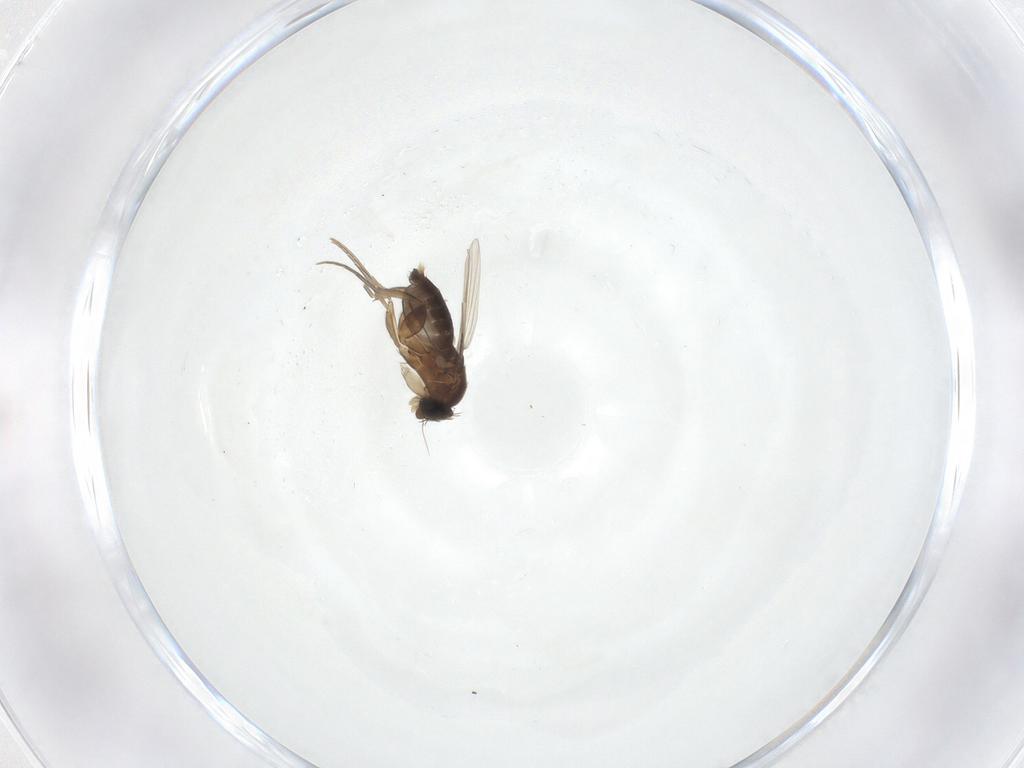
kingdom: Animalia
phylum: Arthropoda
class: Insecta
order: Diptera
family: Phoridae
